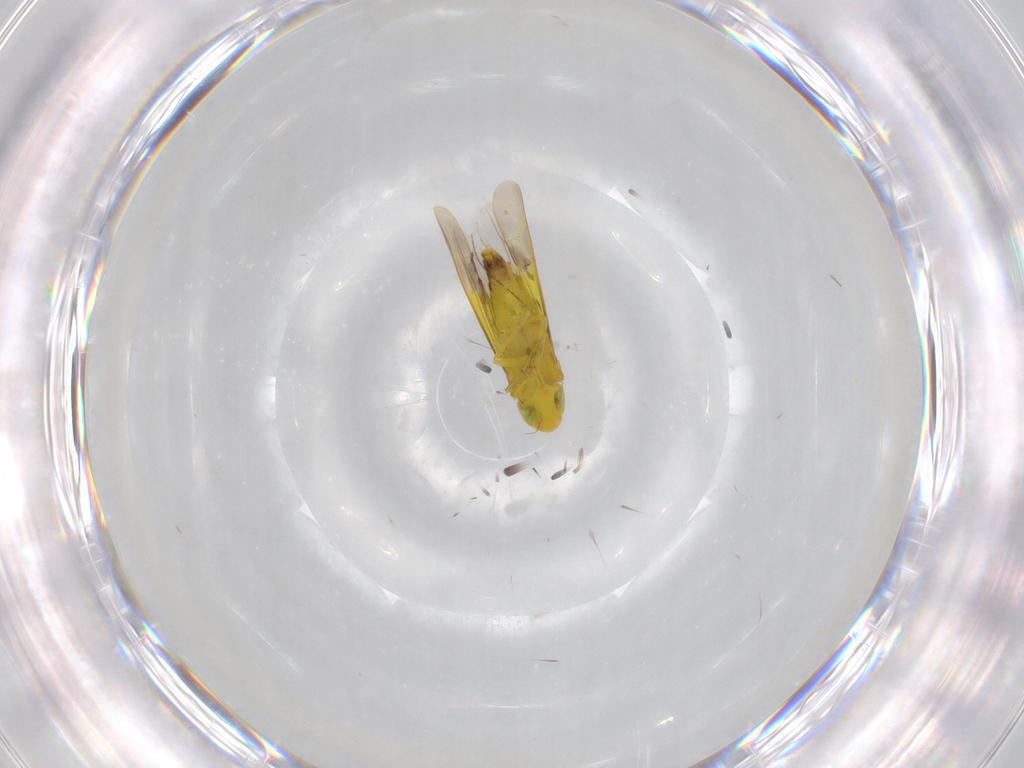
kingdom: Animalia
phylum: Arthropoda
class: Insecta
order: Hemiptera
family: Cicadellidae
